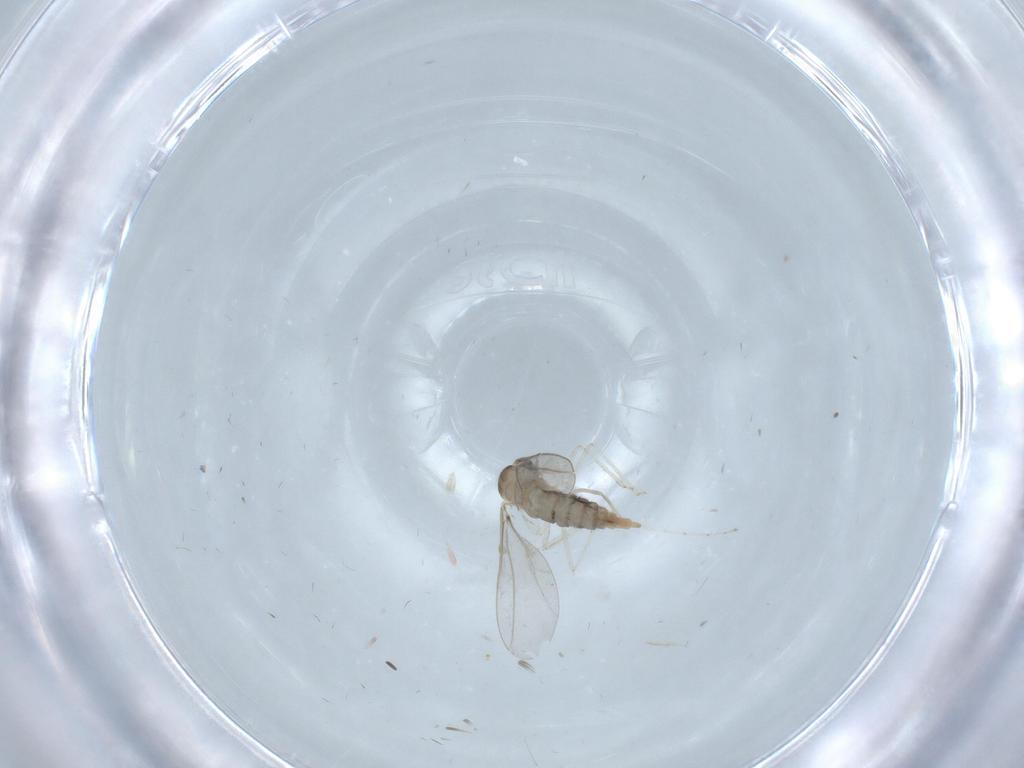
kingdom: Animalia
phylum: Arthropoda
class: Insecta
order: Diptera
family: Cecidomyiidae
